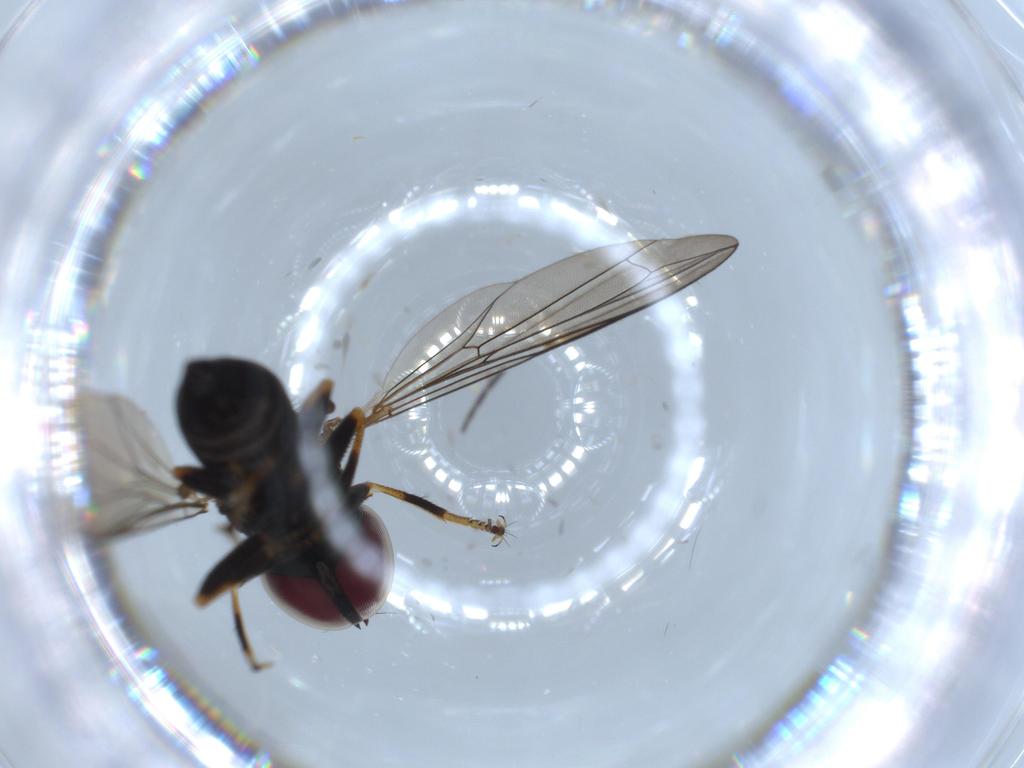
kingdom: Animalia
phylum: Arthropoda
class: Insecta
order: Diptera
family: Pipunculidae
